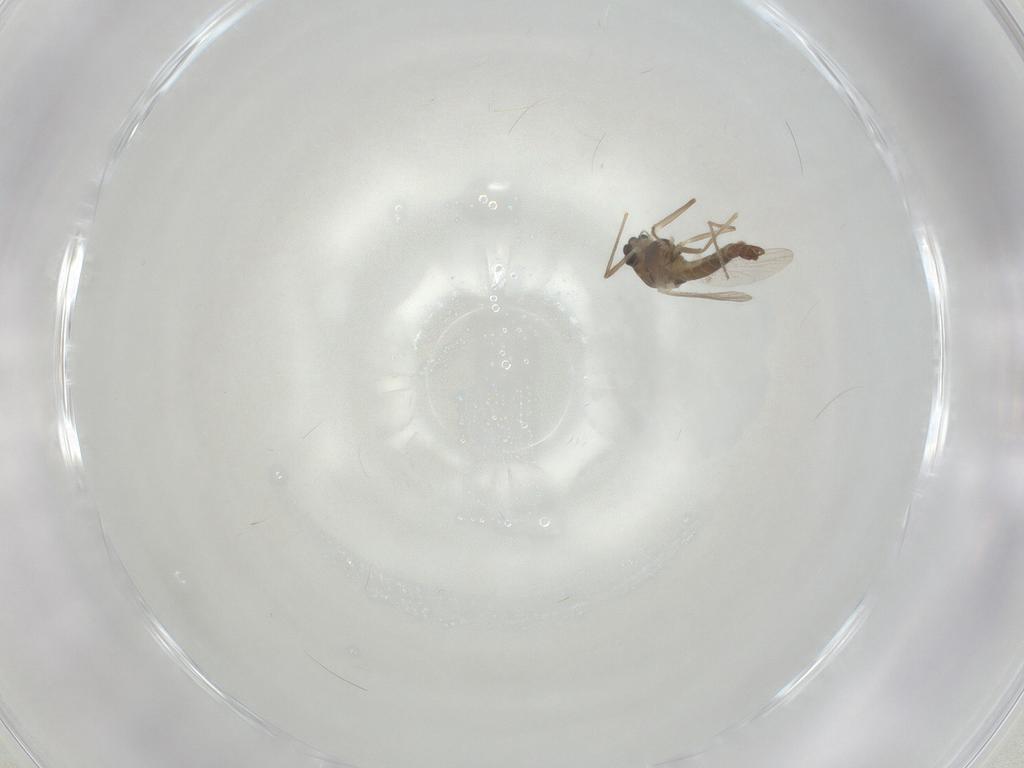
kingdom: Animalia
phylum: Arthropoda
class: Insecta
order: Diptera
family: Chironomidae
